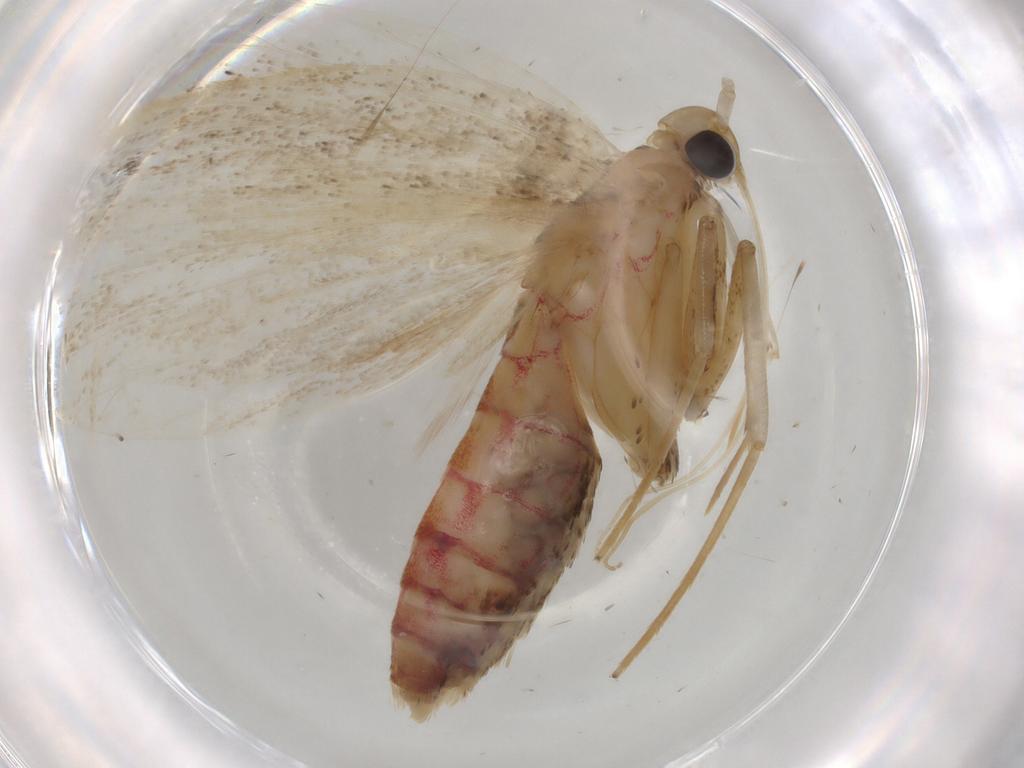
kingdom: Animalia
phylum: Arthropoda
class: Insecta
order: Lepidoptera
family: Lecithoceridae
